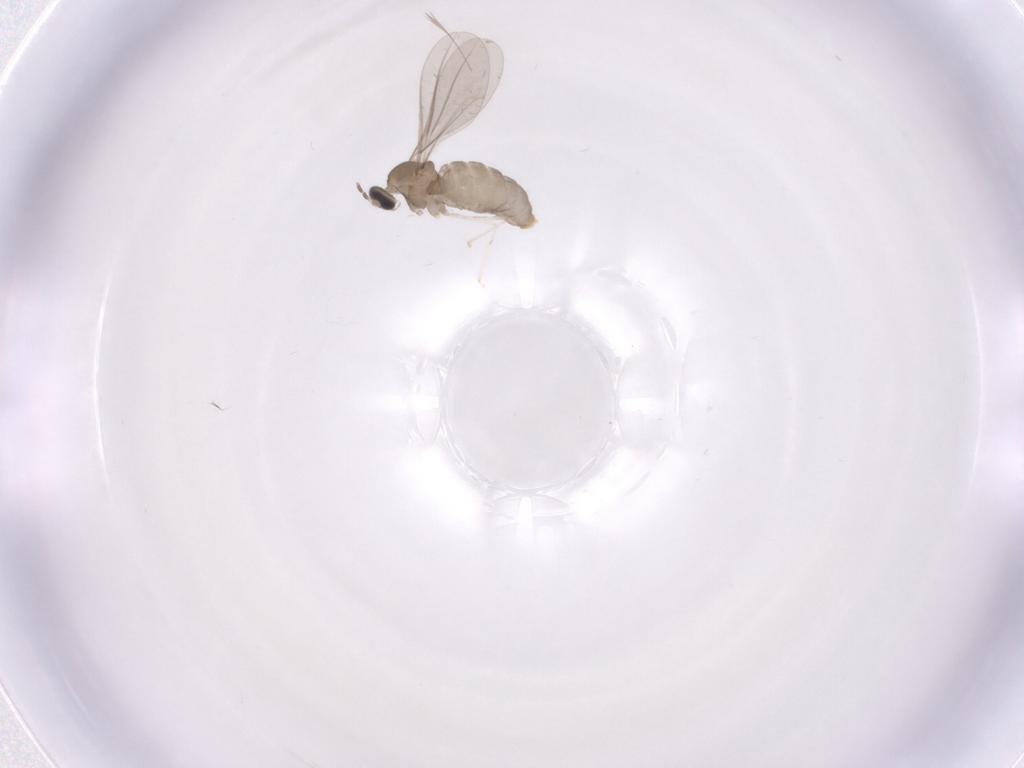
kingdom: Animalia
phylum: Arthropoda
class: Insecta
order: Diptera
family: Cecidomyiidae
